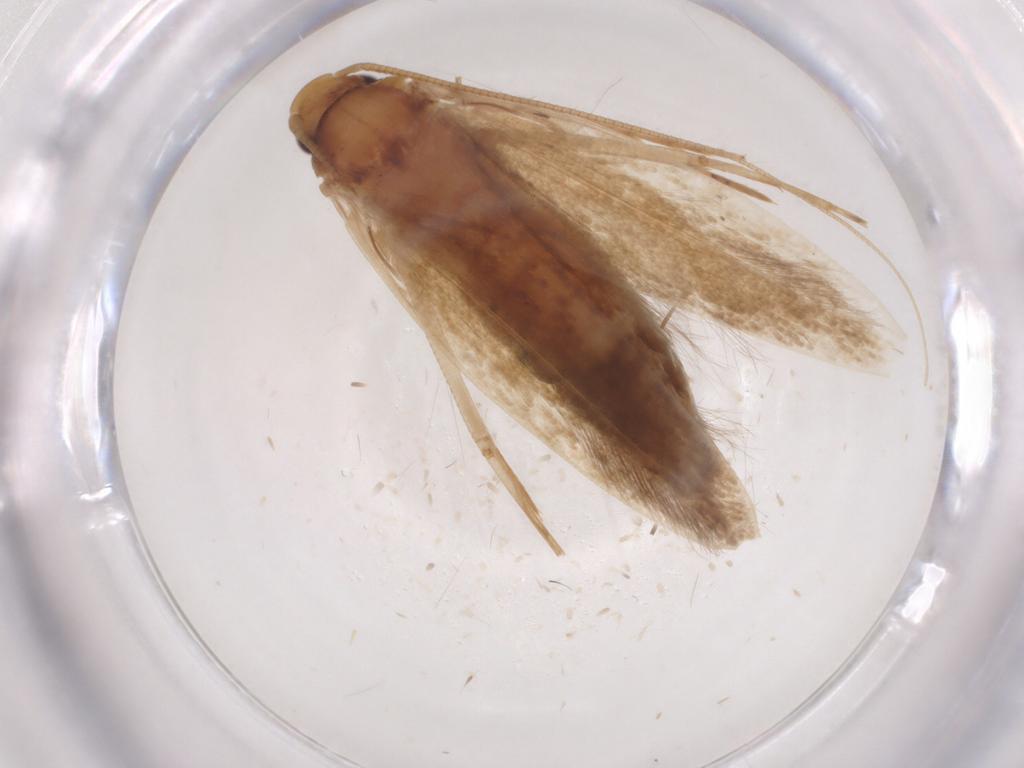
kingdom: Animalia
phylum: Arthropoda
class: Insecta
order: Lepidoptera
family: Tineidae
